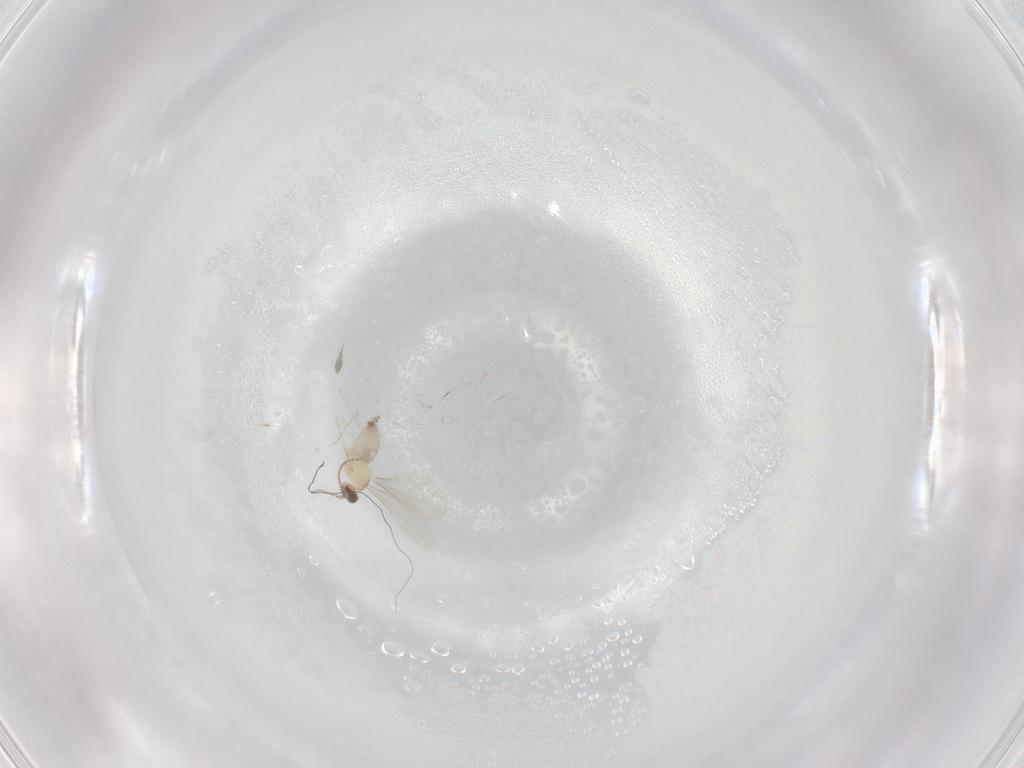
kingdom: Animalia
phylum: Arthropoda
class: Insecta
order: Diptera
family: Cecidomyiidae
